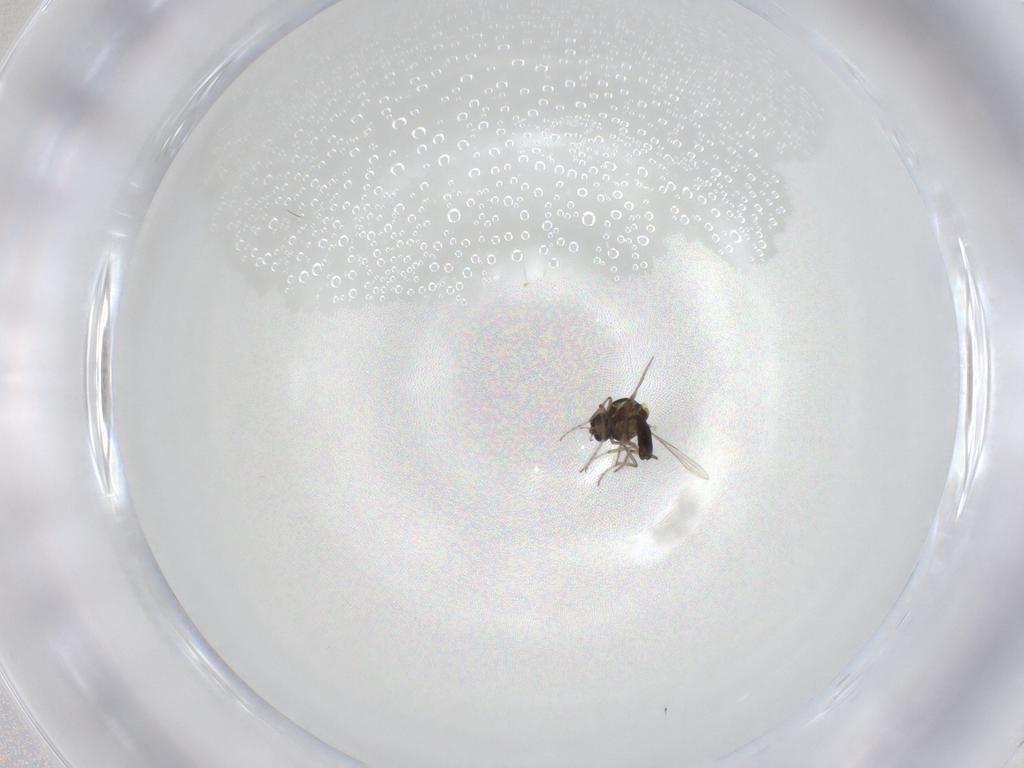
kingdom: Animalia
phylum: Arthropoda
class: Insecta
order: Diptera
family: Ceratopogonidae
